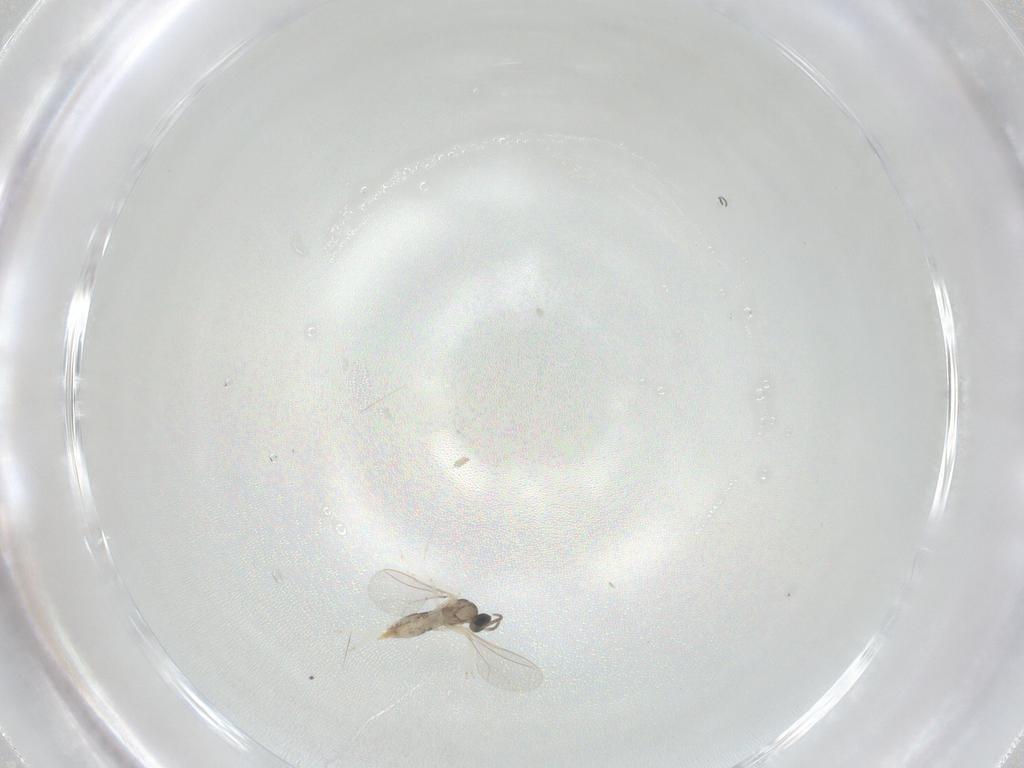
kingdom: Animalia
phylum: Arthropoda
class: Insecta
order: Diptera
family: Cecidomyiidae
